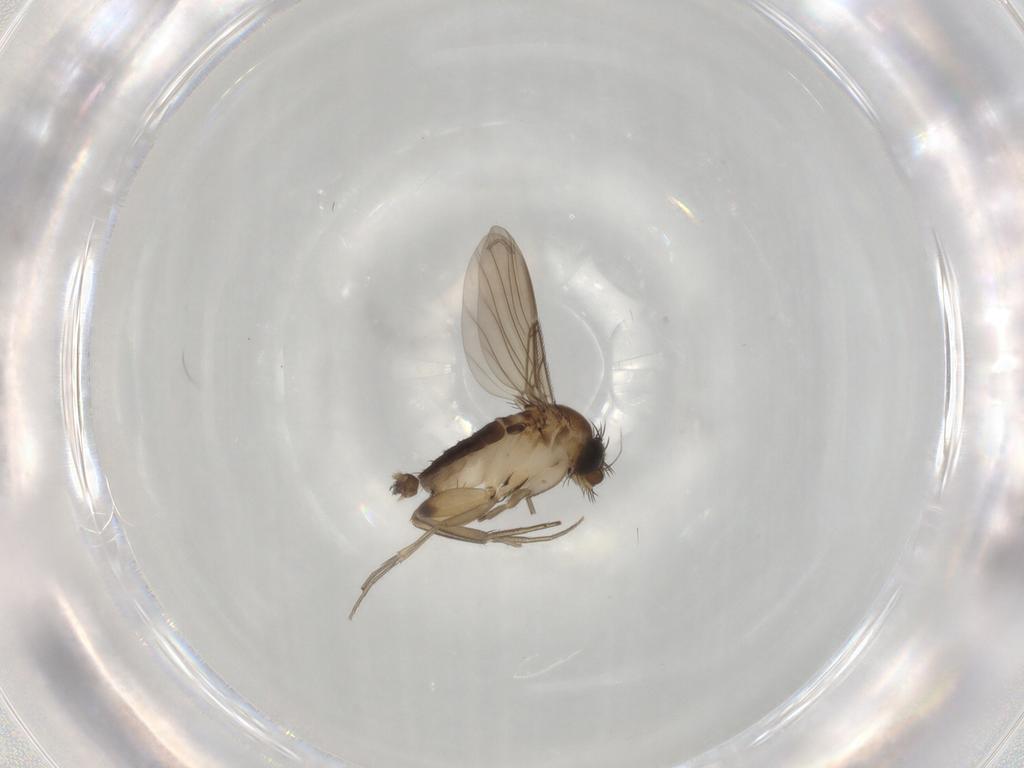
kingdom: Animalia
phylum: Arthropoda
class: Insecta
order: Diptera
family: Phoridae
